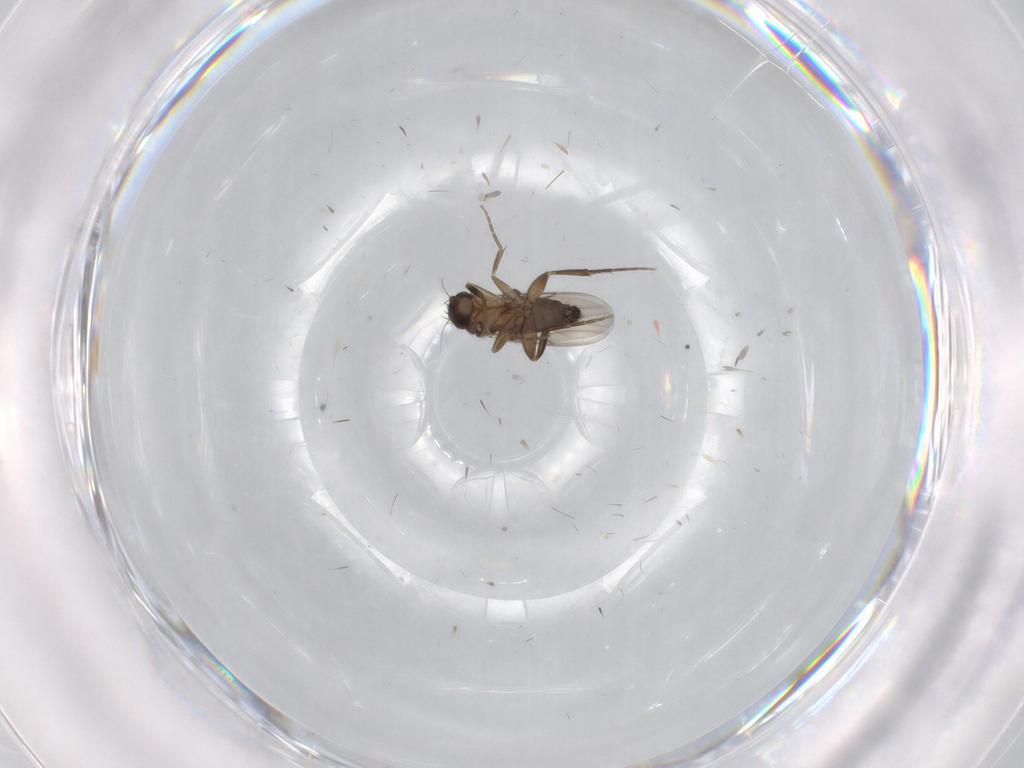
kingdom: Animalia
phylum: Arthropoda
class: Insecta
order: Diptera
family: Phoridae
